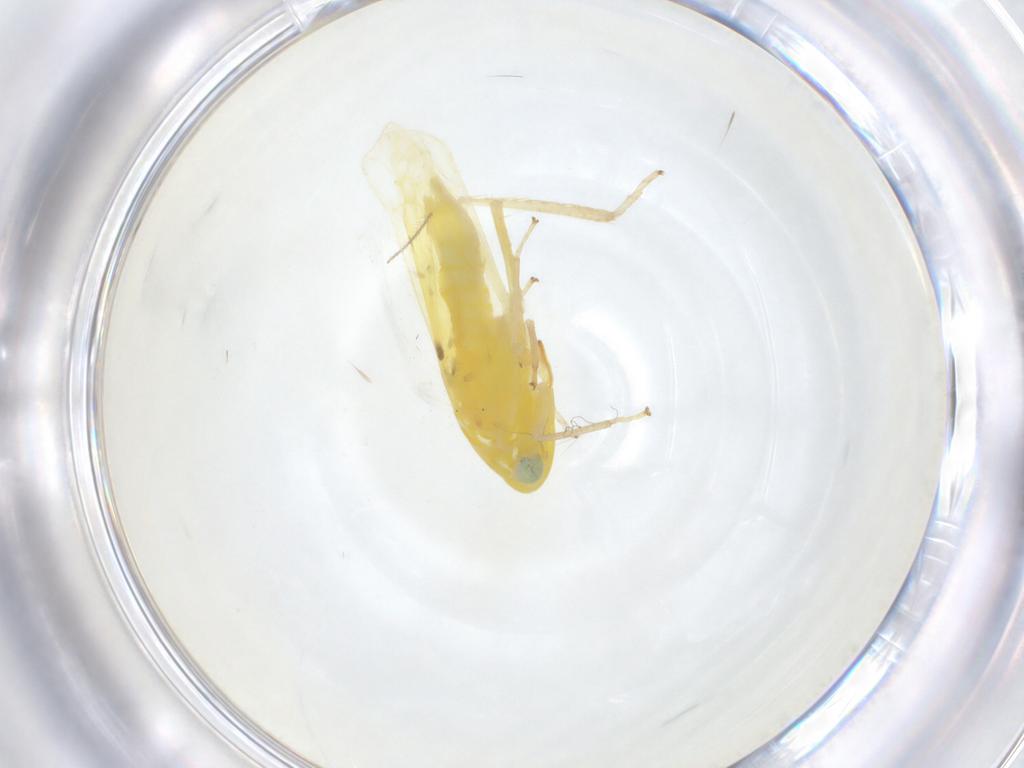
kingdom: Animalia
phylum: Arthropoda
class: Insecta
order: Hemiptera
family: Cicadellidae
